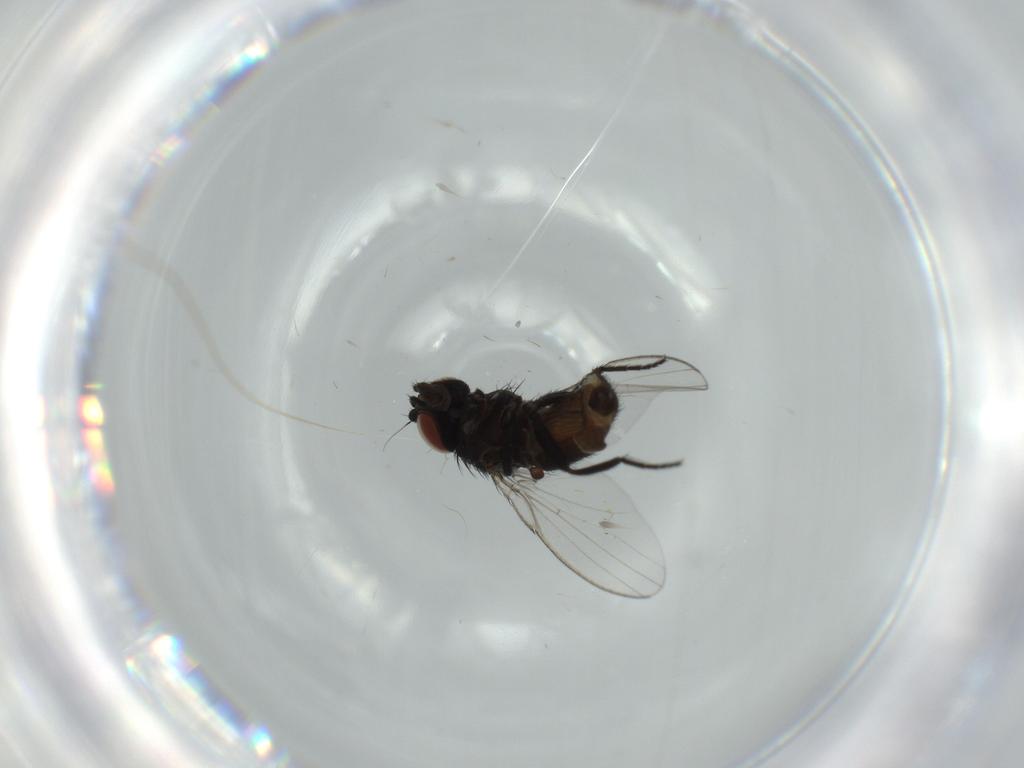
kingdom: Animalia
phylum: Arthropoda
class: Insecta
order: Diptera
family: Milichiidae
